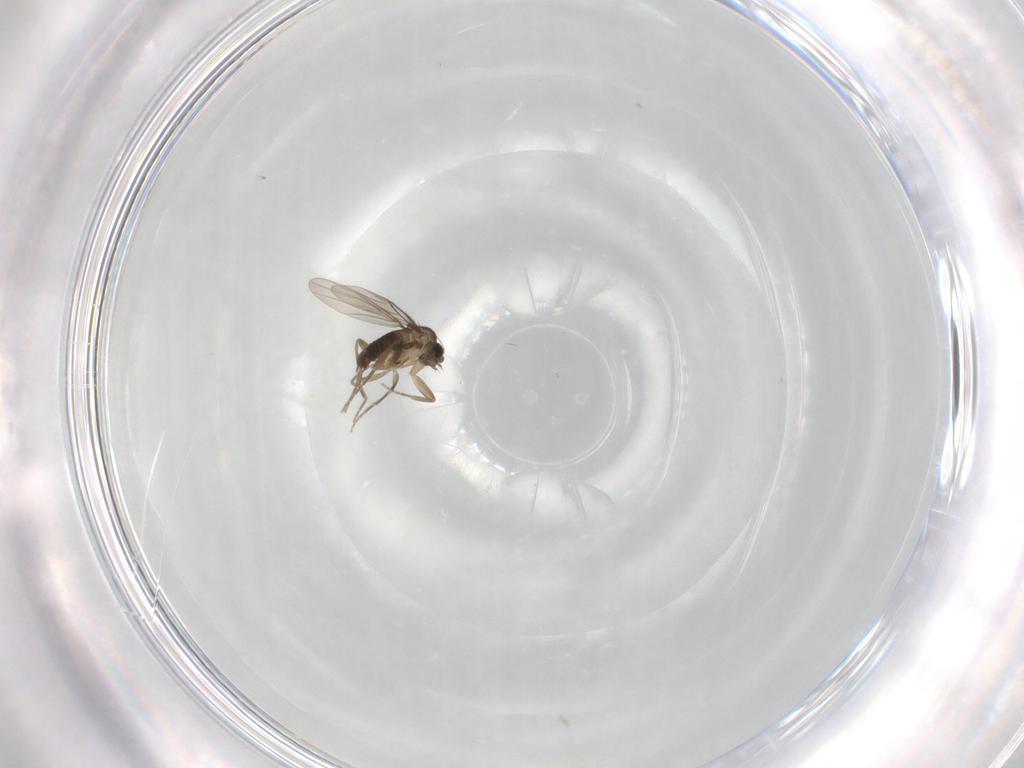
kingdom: Animalia
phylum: Arthropoda
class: Insecta
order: Diptera
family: Phoridae
